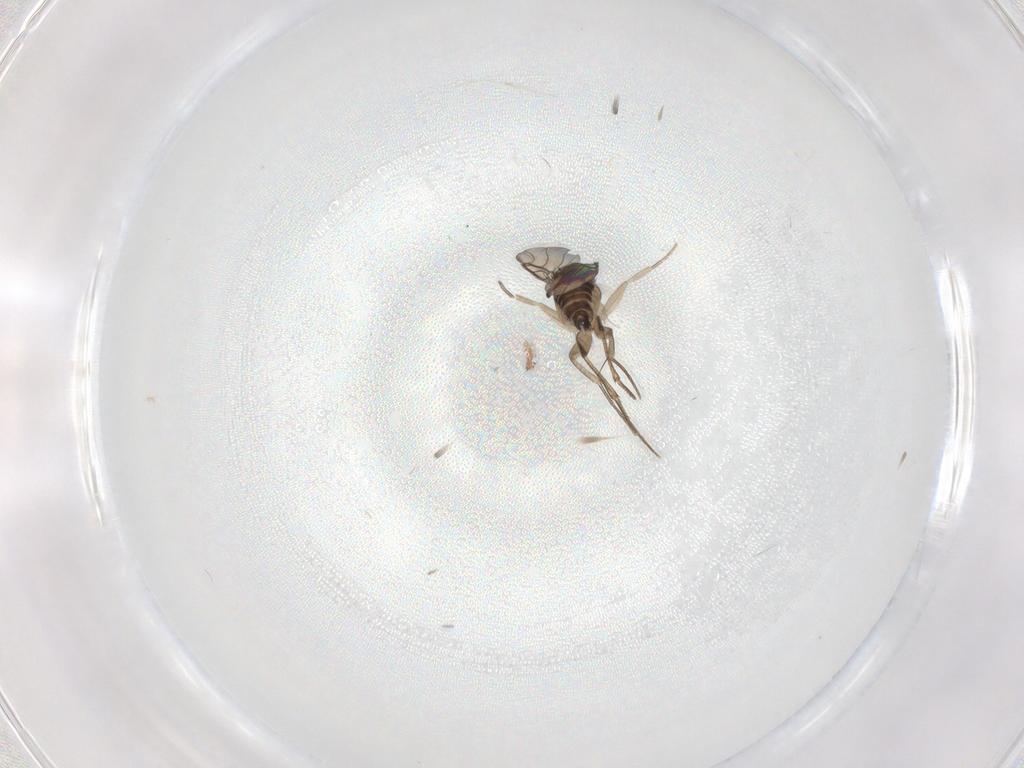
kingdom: Animalia
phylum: Arthropoda
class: Insecta
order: Diptera
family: Phoridae
